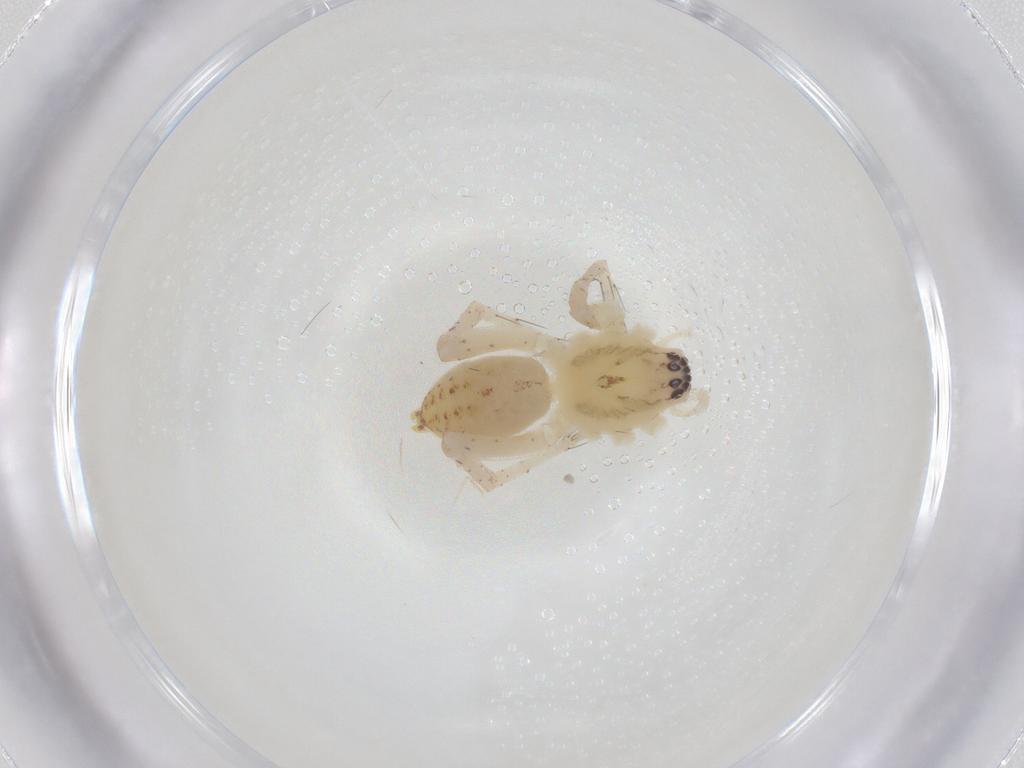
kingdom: Animalia
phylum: Arthropoda
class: Arachnida
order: Araneae
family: Anyphaenidae
